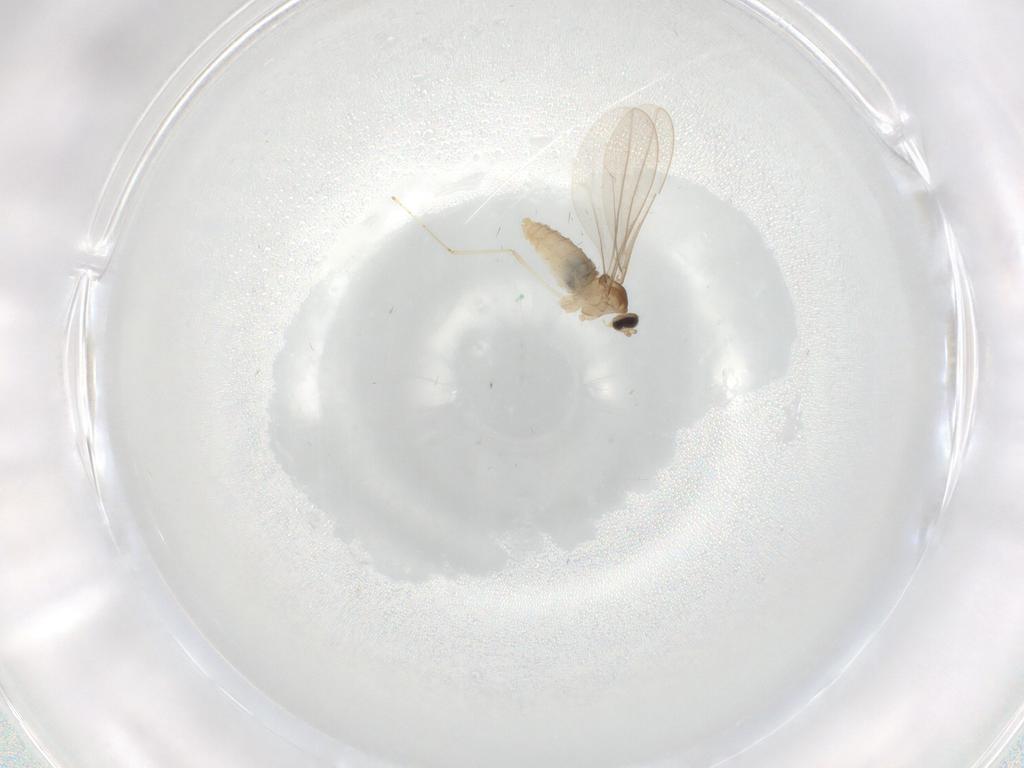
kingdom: Animalia
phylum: Arthropoda
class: Insecta
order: Diptera
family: Cecidomyiidae
